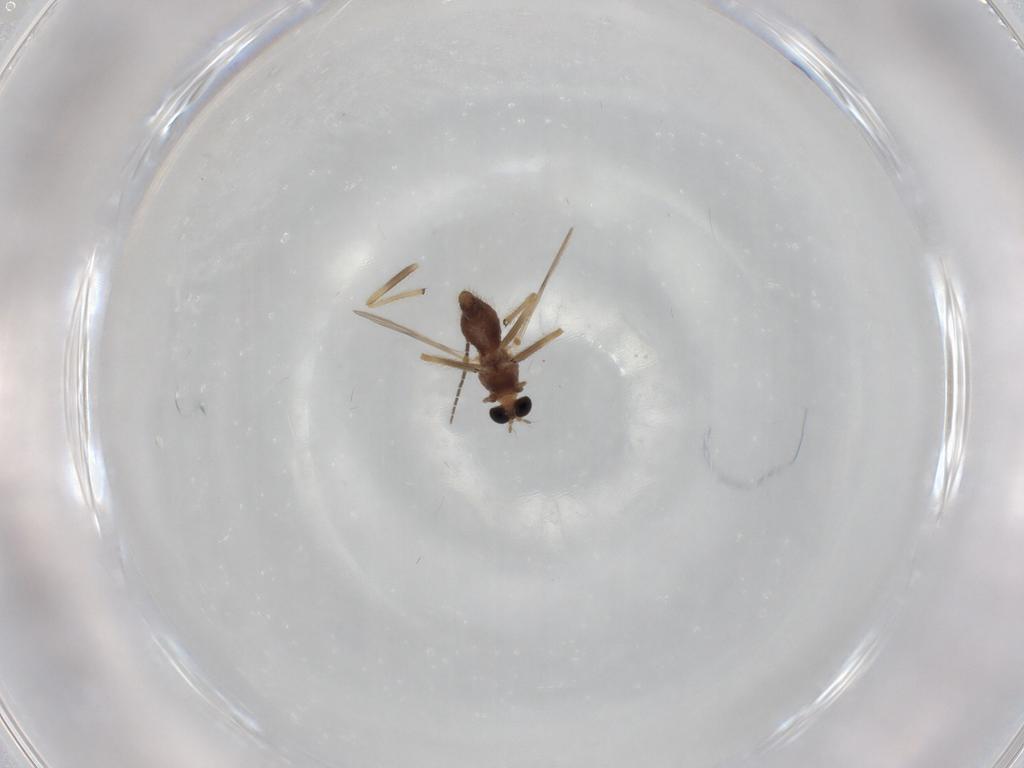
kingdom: Animalia
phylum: Arthropoda
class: Insecta
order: Diptera
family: Chironomidae
